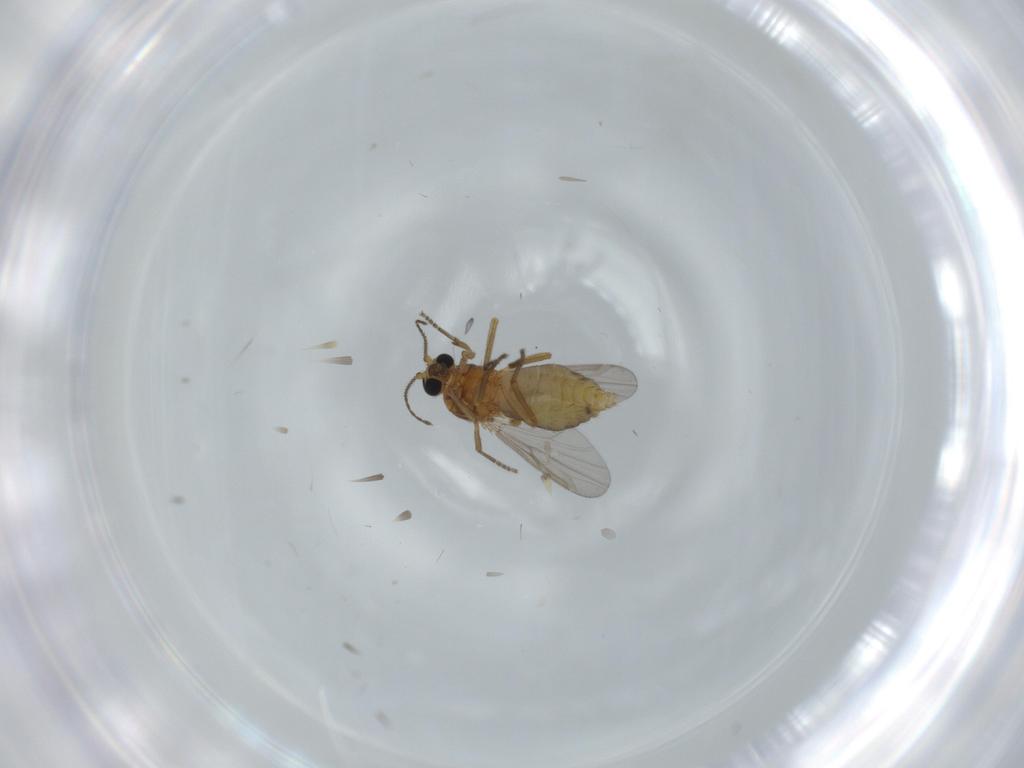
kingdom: Animalia
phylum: Arthropoda
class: Insecta
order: Diptera
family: Ceratopogonidae
